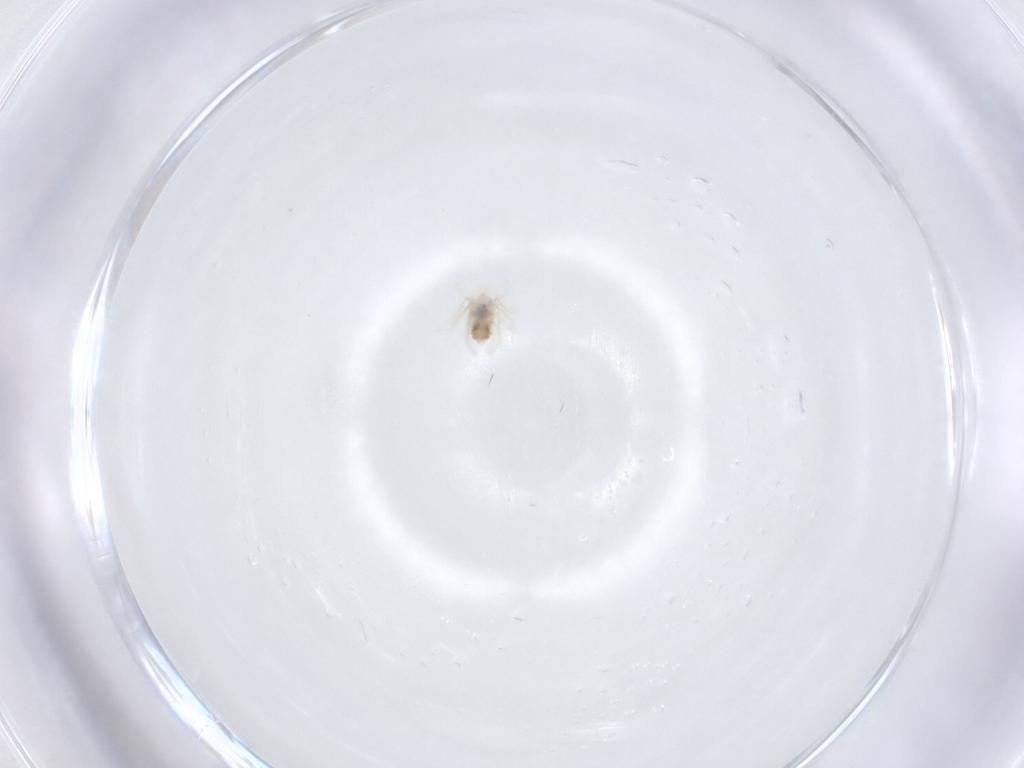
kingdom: Animalia
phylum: Arthropoda
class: Arachnida
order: Trombidiformes
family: Anystidae
